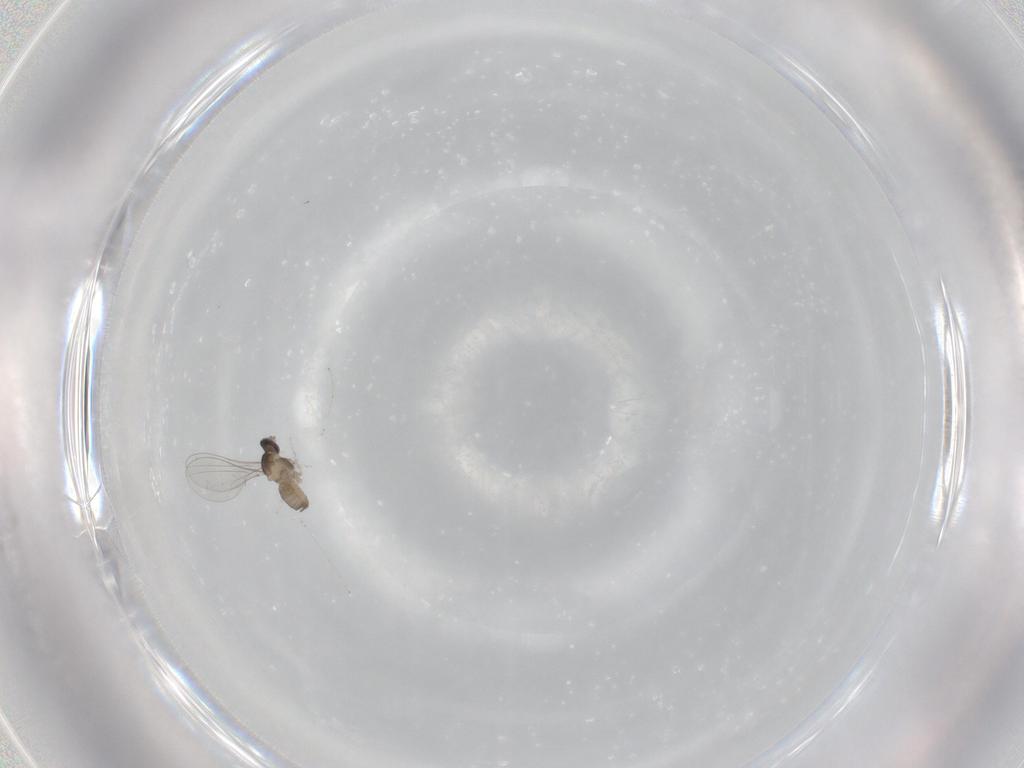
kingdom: Animalia
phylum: Arthropoda
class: Insecta
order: Diptera
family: Cecidomyiidae
